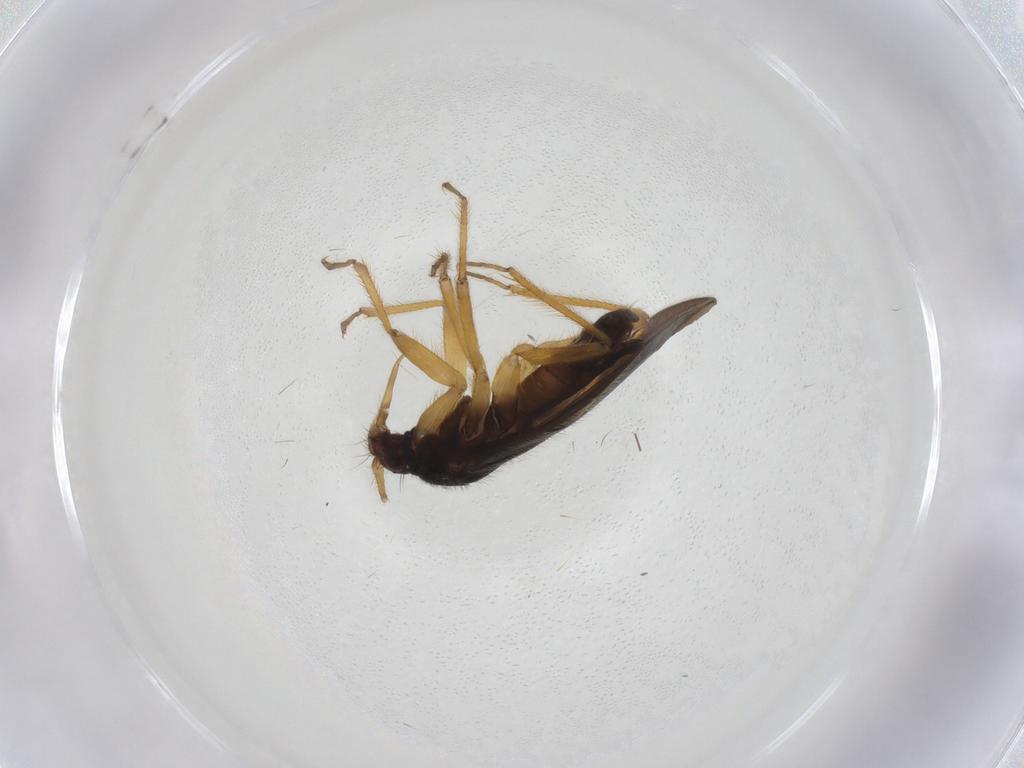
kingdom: Animalia
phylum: Arthropoda
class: Insecta
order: Hemiptera
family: Ceratocombidae
